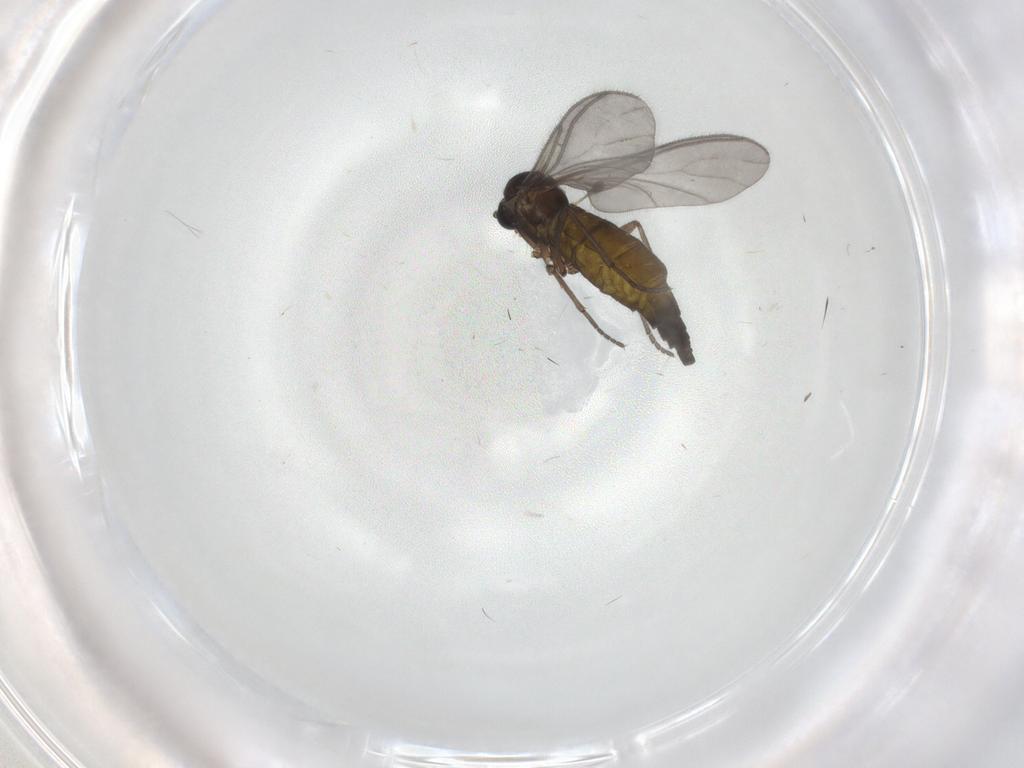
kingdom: Animalia
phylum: Arthropoda
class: Insecta
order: Diptera
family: Sciaridae
